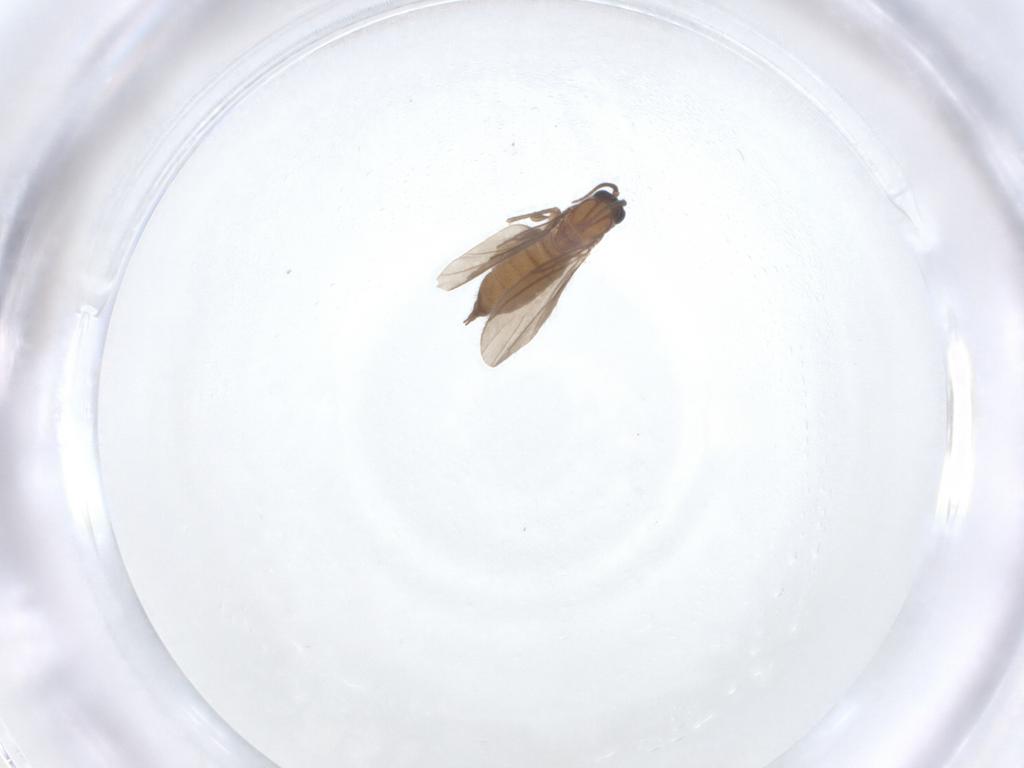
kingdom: Animalia
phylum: Arthropoda
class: Insecta
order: Diptera
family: Sciaridae
